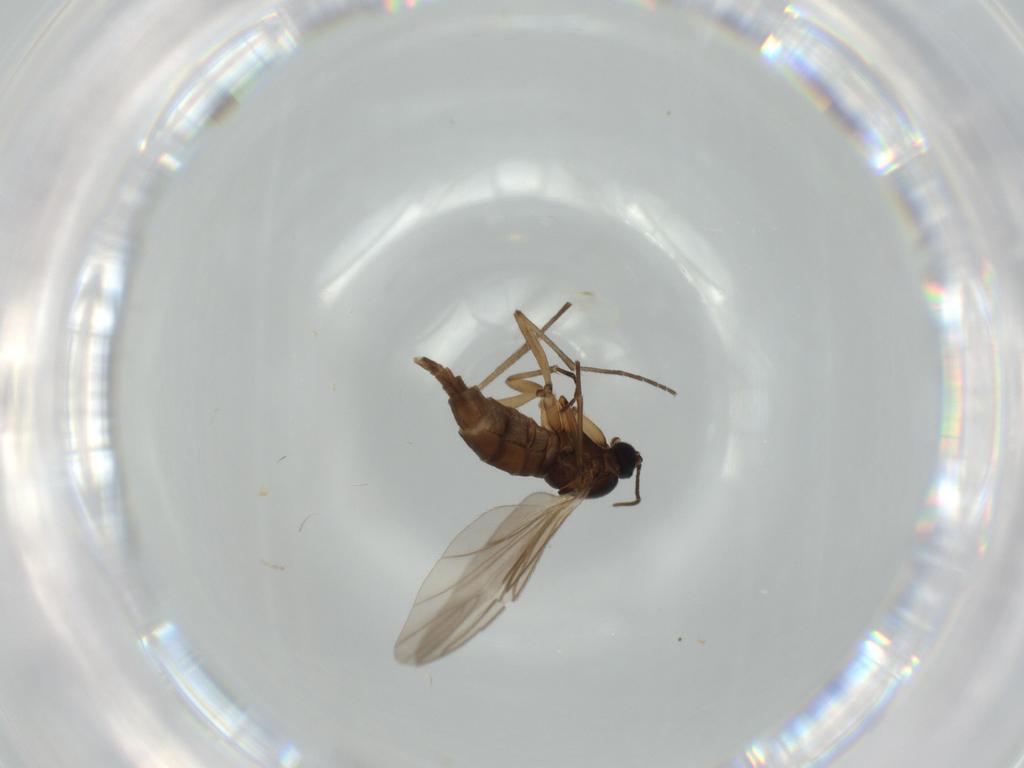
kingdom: Animalia
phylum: Arthropoda
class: Insecta
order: Diptera
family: Sciaridae
